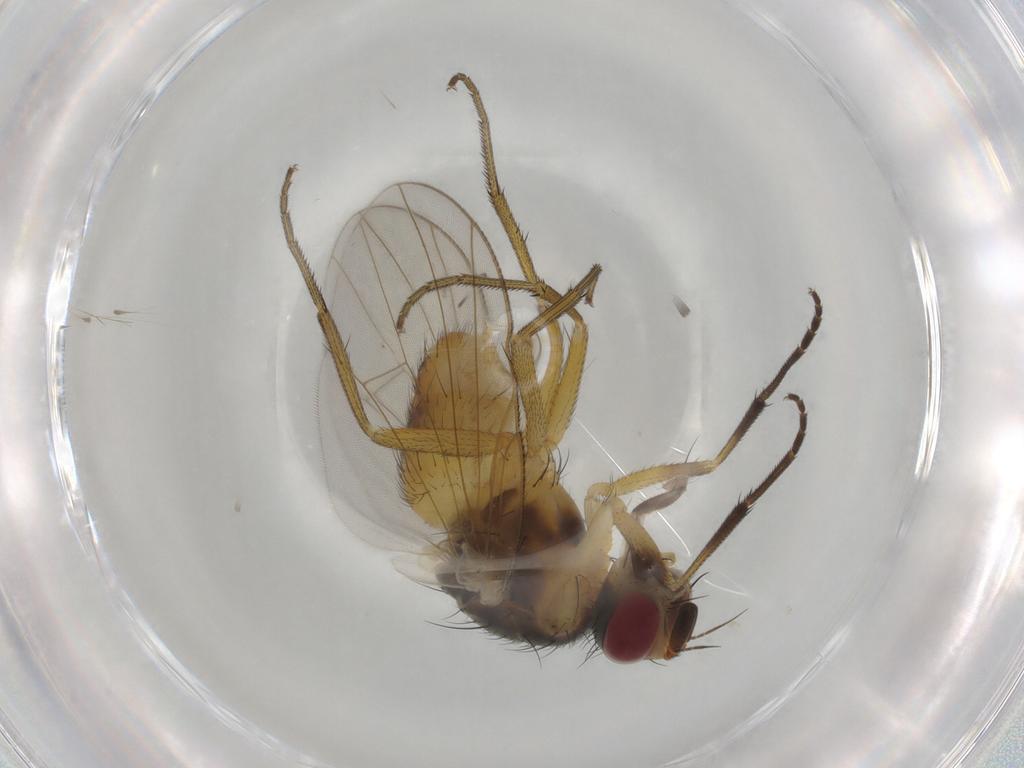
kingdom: Animalia
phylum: Arthropoda
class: Insecta
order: Diptera
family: Muscidae
